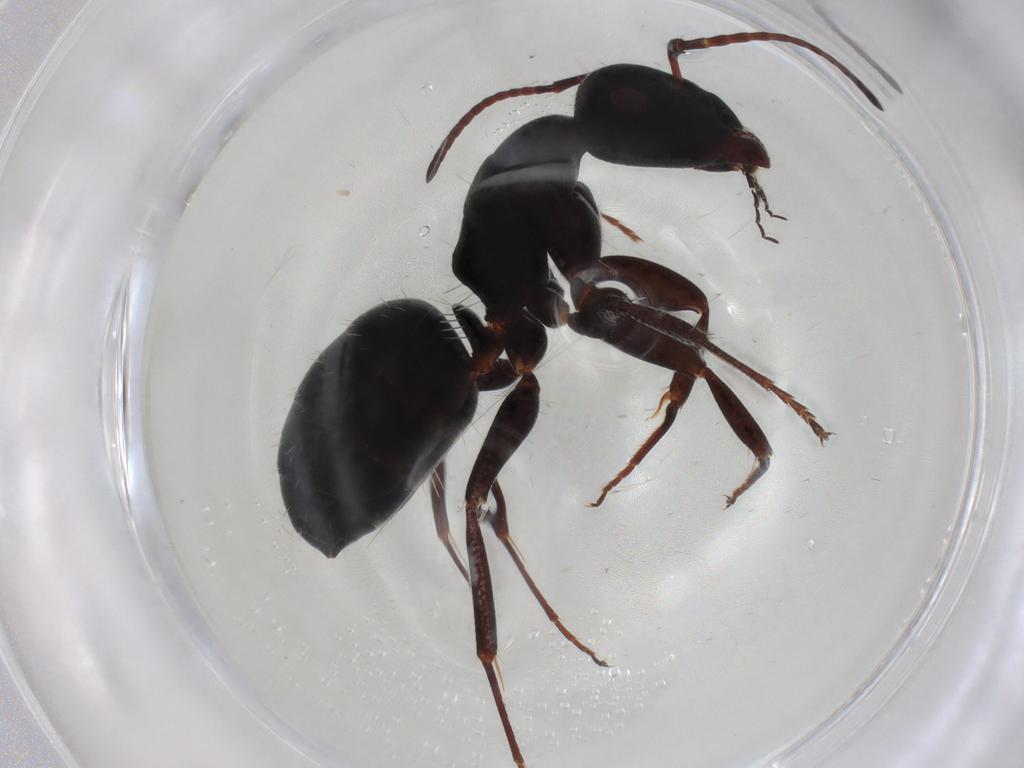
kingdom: Animalia
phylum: Arthropoda
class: Insecta
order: Hymenoptera
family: Formicidae
